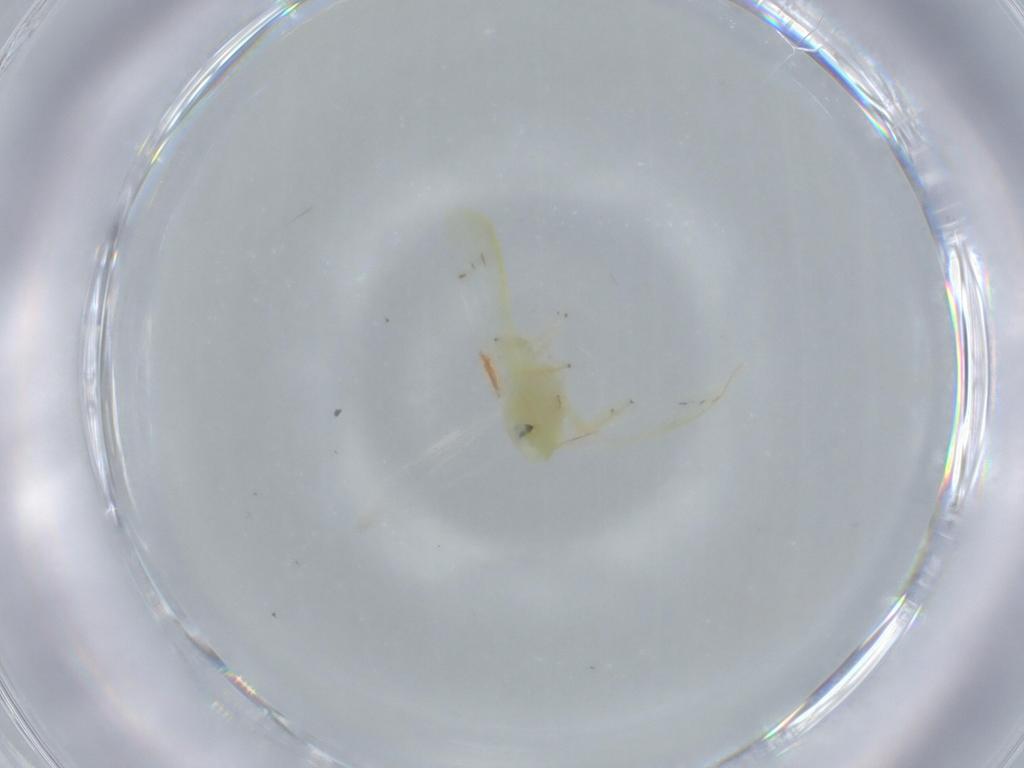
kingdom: Animalia
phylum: Arthropoda
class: Insecta
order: Hemiptera
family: Cicadellidae
